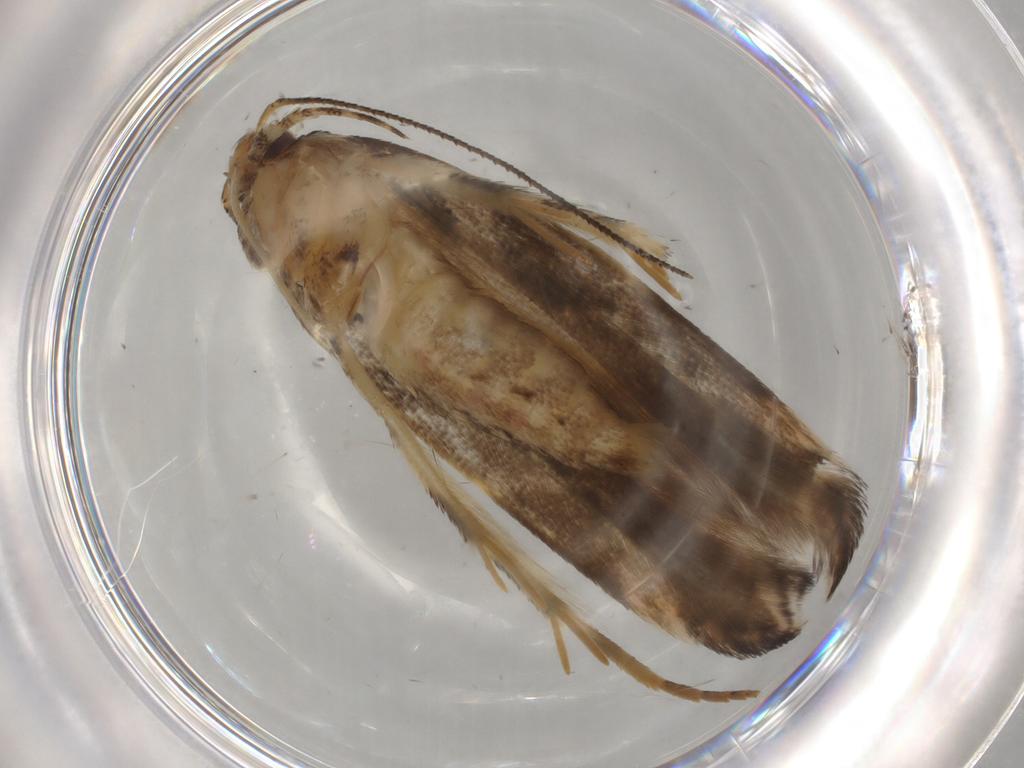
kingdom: Animalia
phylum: Arthropoda
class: Insecta
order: Lepidoptera
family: Gelechiidae
